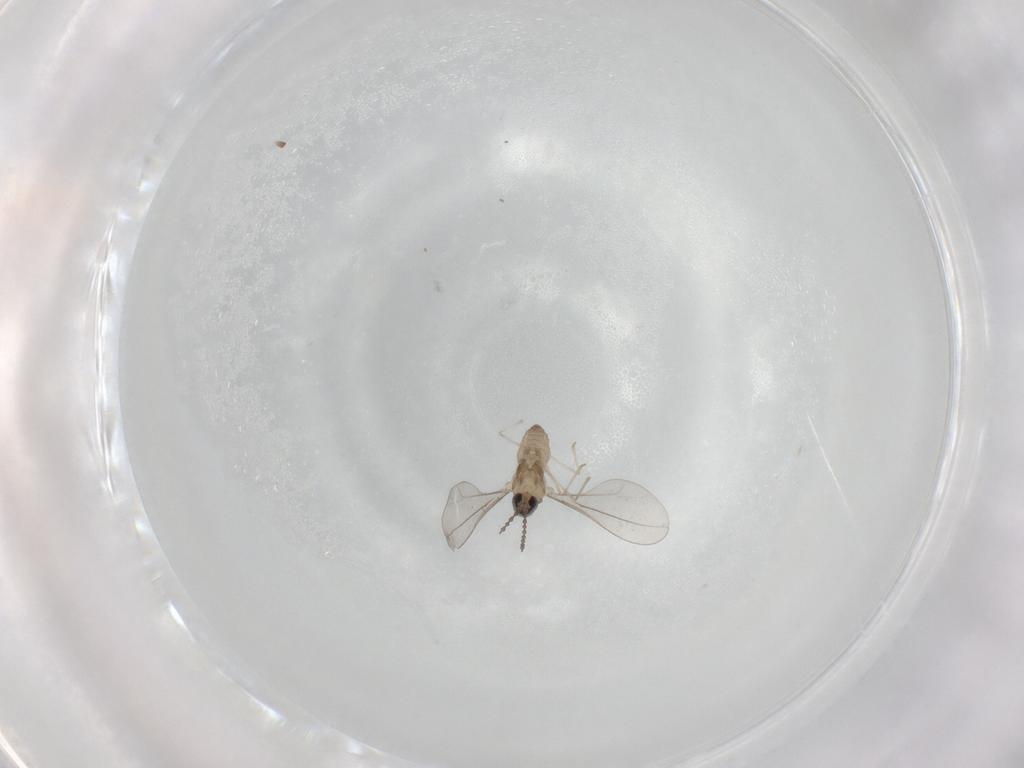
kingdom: Animalia
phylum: Arthropoda
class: Insecta
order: Diptera
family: Cecidomyiidae
